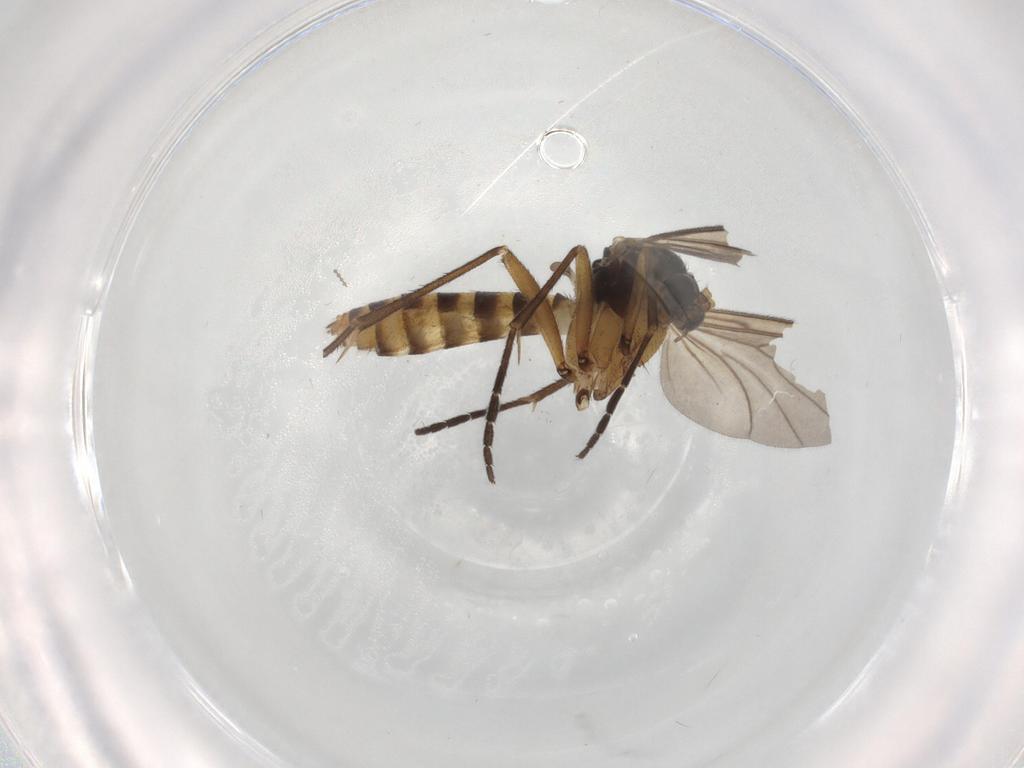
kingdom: Animalia
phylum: Arthropoda
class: Insecta
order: Diptera
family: Mycetophilidae
